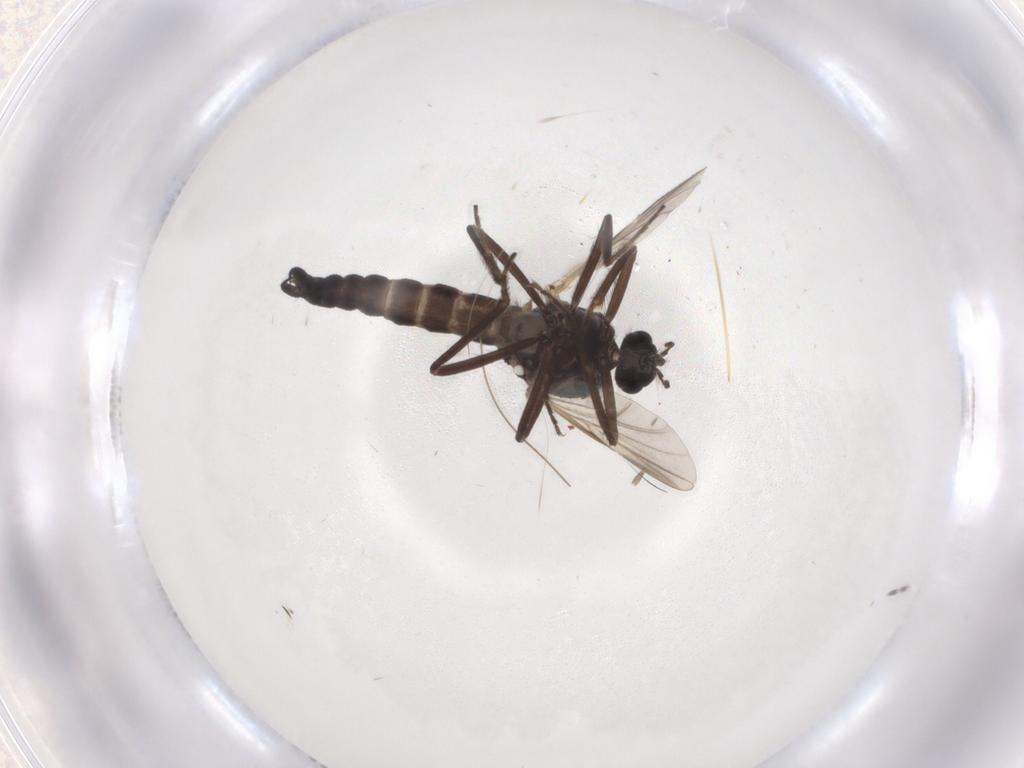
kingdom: Animalia
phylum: Arthropoda
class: Insecta
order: Diptera
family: Ceratopogonidae
